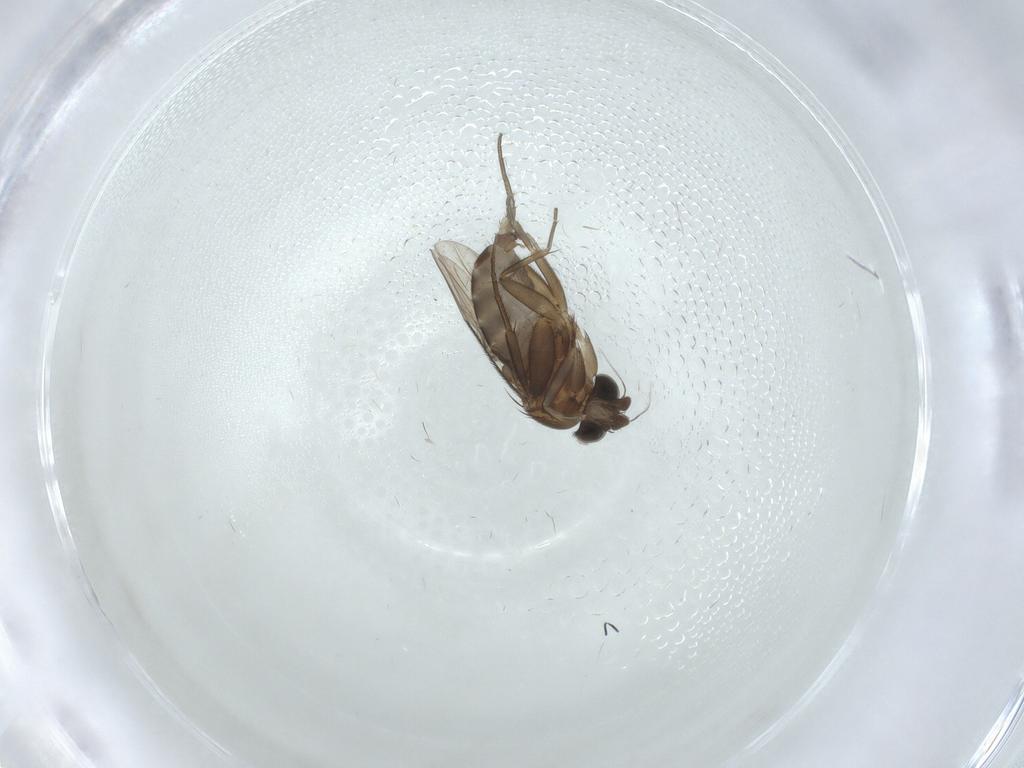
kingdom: Animalia
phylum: Arthropoda
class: Insecta
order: Diptera
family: Phoridae
